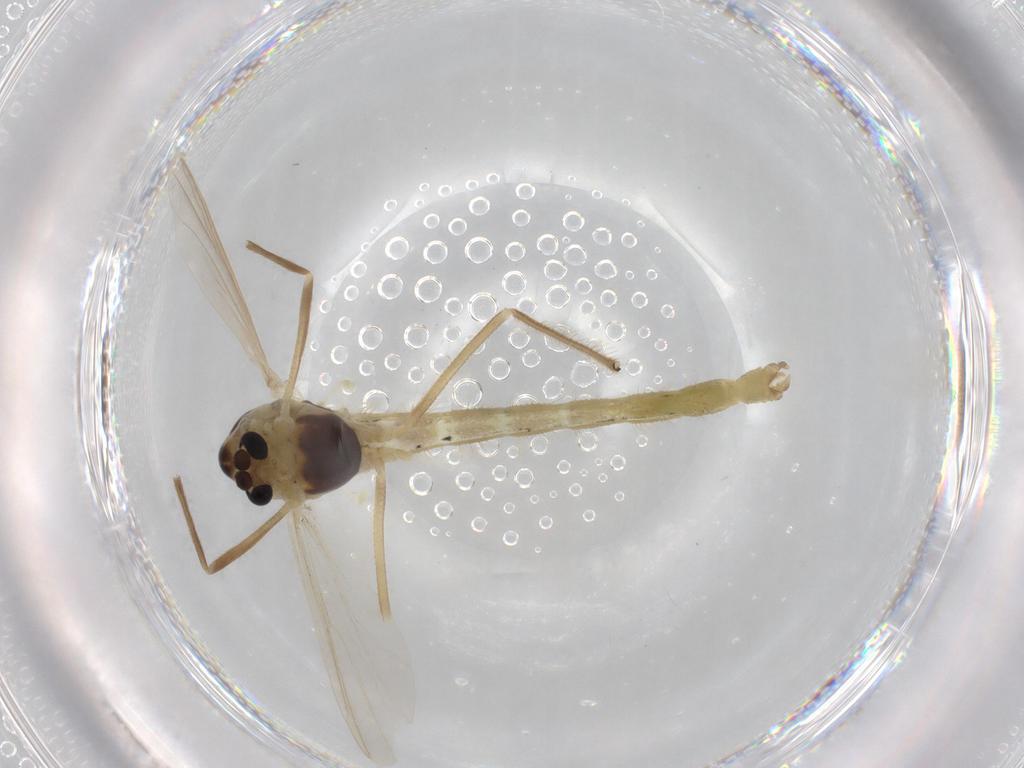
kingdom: Animalia
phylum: Arthropoda
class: Insecta
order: Diptera
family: Chironomidae
